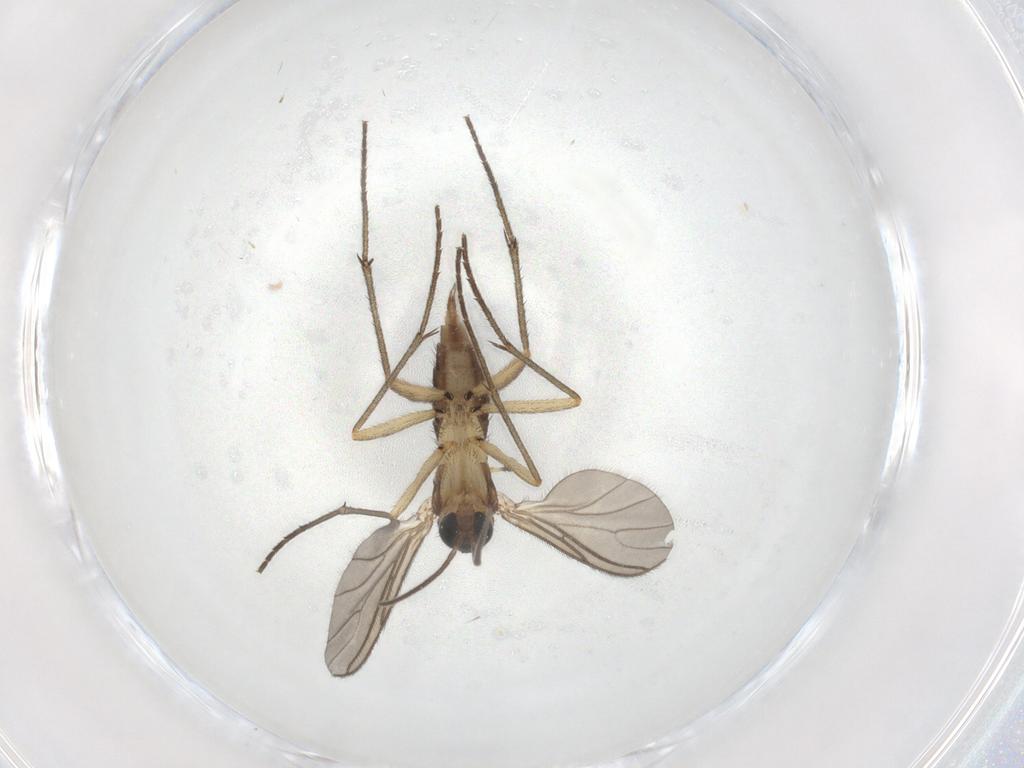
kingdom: Animalia
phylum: Arthropoda
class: Insecta
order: Diptera
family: Sciaridae
